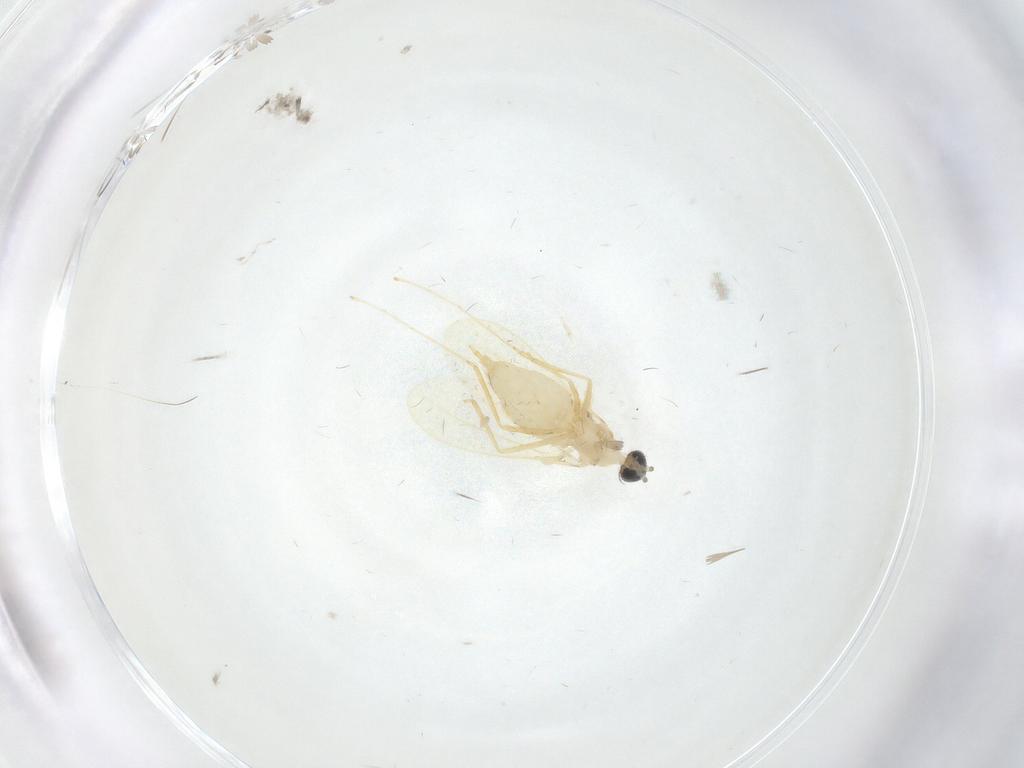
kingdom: Animalia
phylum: Arthropoda
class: Insecta
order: Diptera
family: Cecidomyiidae
